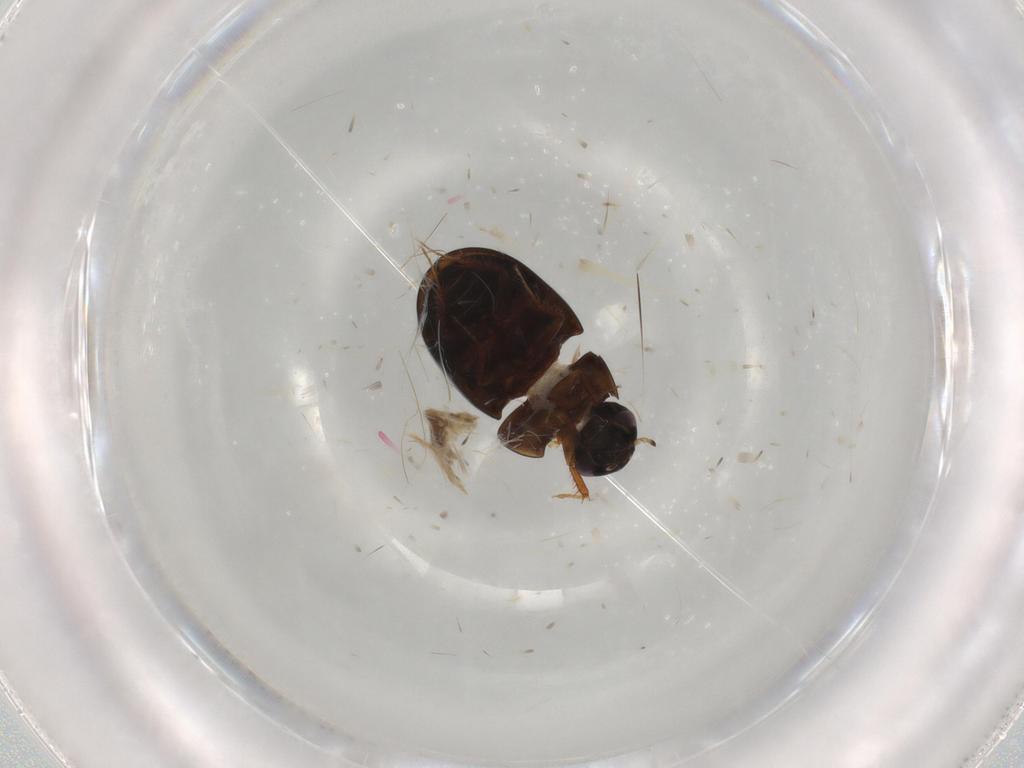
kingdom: Animalia
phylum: Arthropoda
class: Insecta
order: Coleoptera
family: Hydrophilidae
